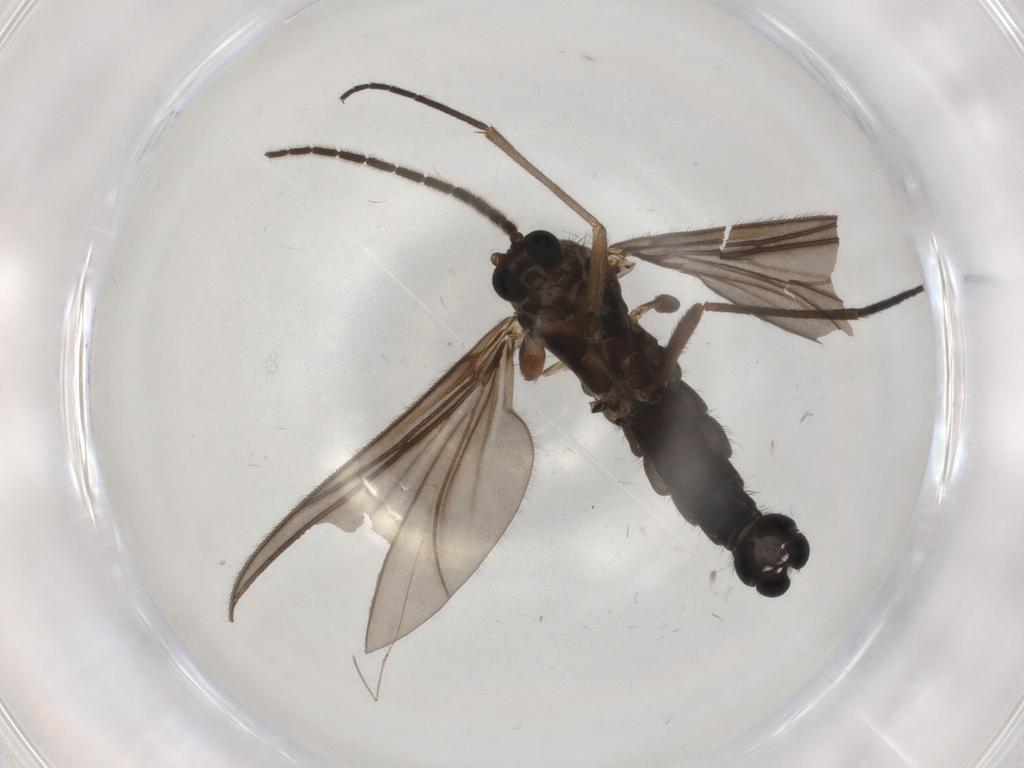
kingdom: Animalia
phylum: Arthropoda
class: Insecta
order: Diptera
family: Sciaridae
